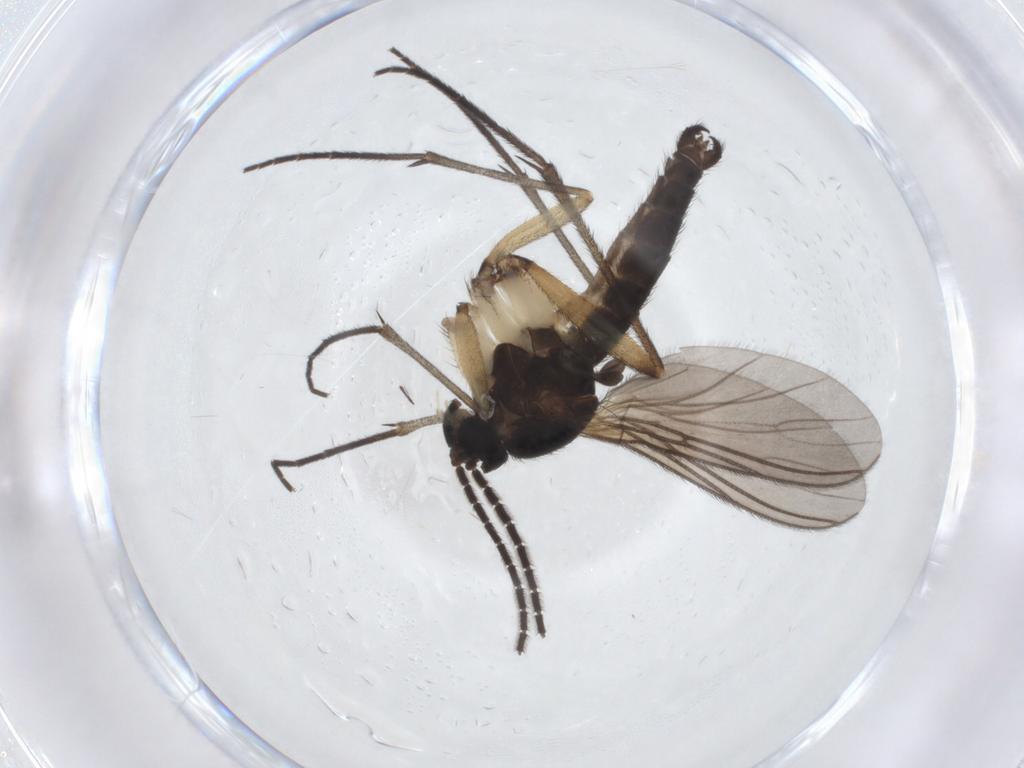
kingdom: Animalia
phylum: Arthropoda
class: Insecta
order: Diptera
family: Sciaridae
